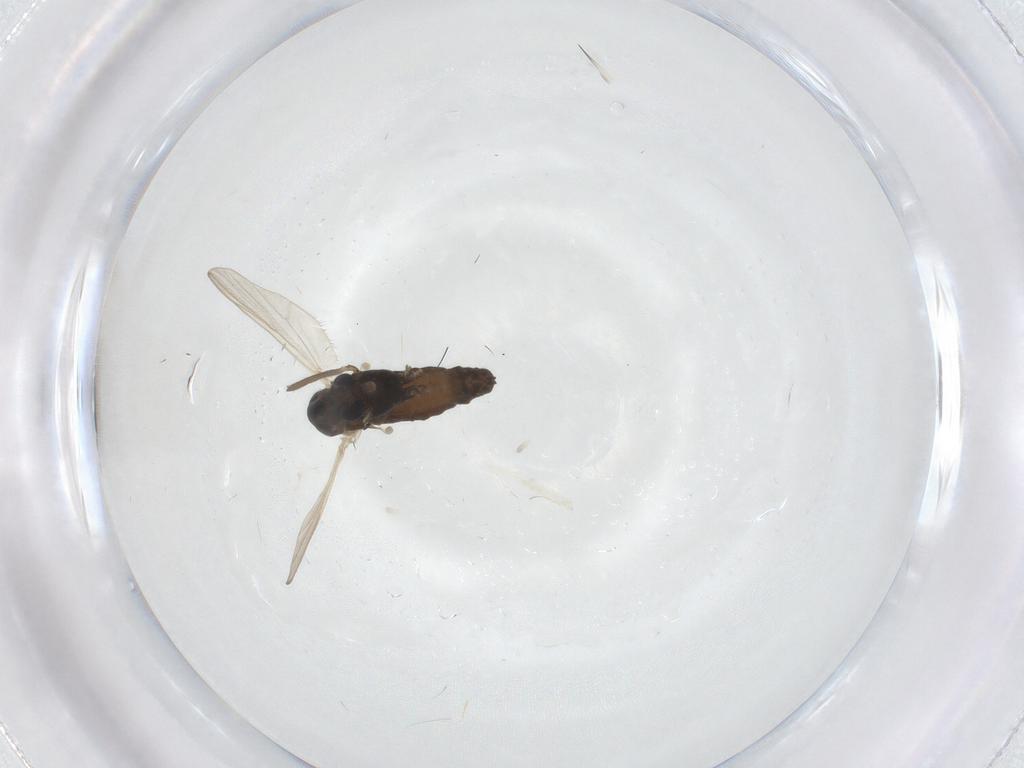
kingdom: Animalia
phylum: Arthropoda
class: Insecta
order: Diptera
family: Chironomidae
